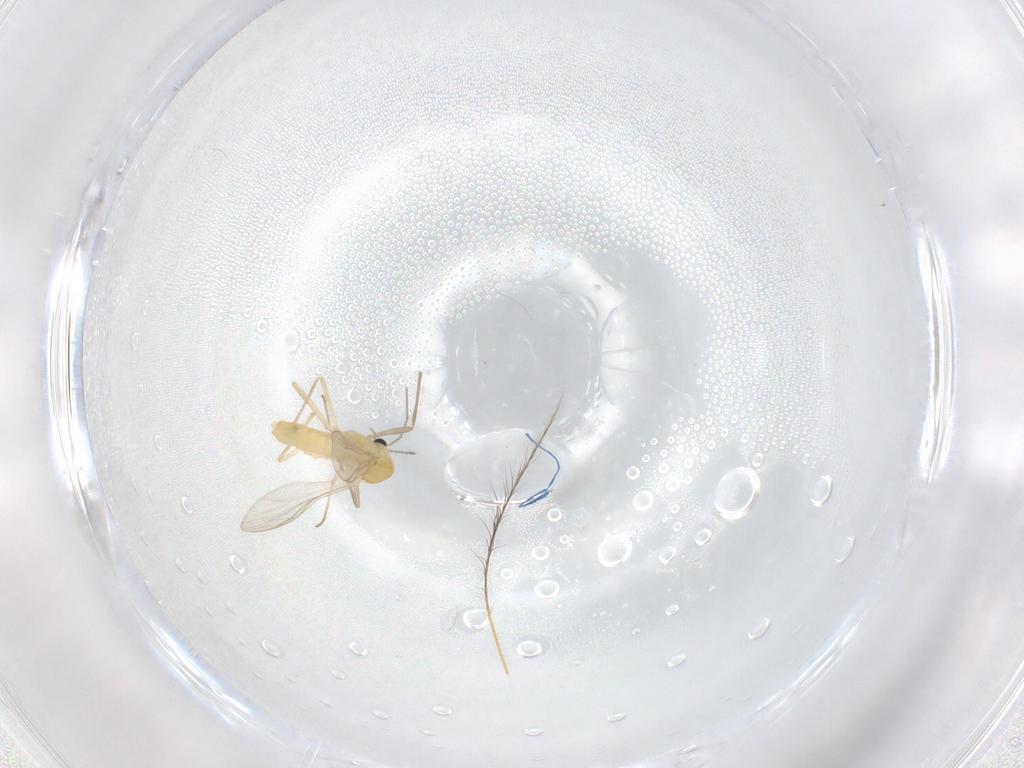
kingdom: Animalia
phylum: Arthropoda
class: Insecta
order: Diptera
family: Chironomidae
